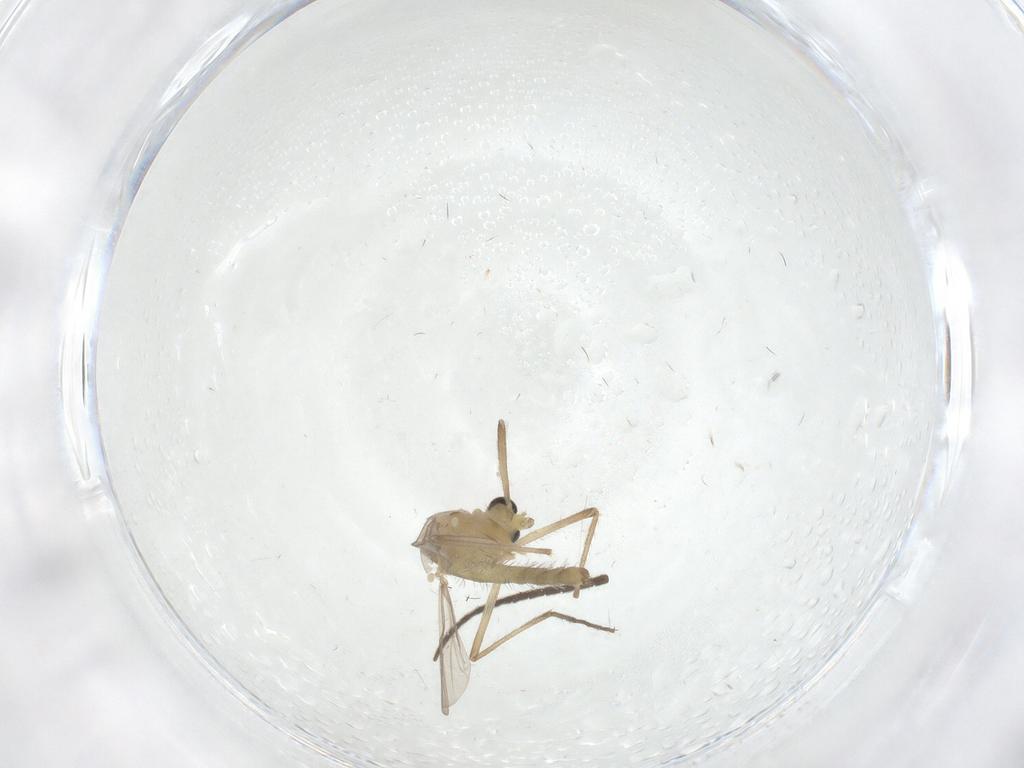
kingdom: Animalia
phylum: Arthropoda
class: Insecta
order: Diptera
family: Chironomidae
